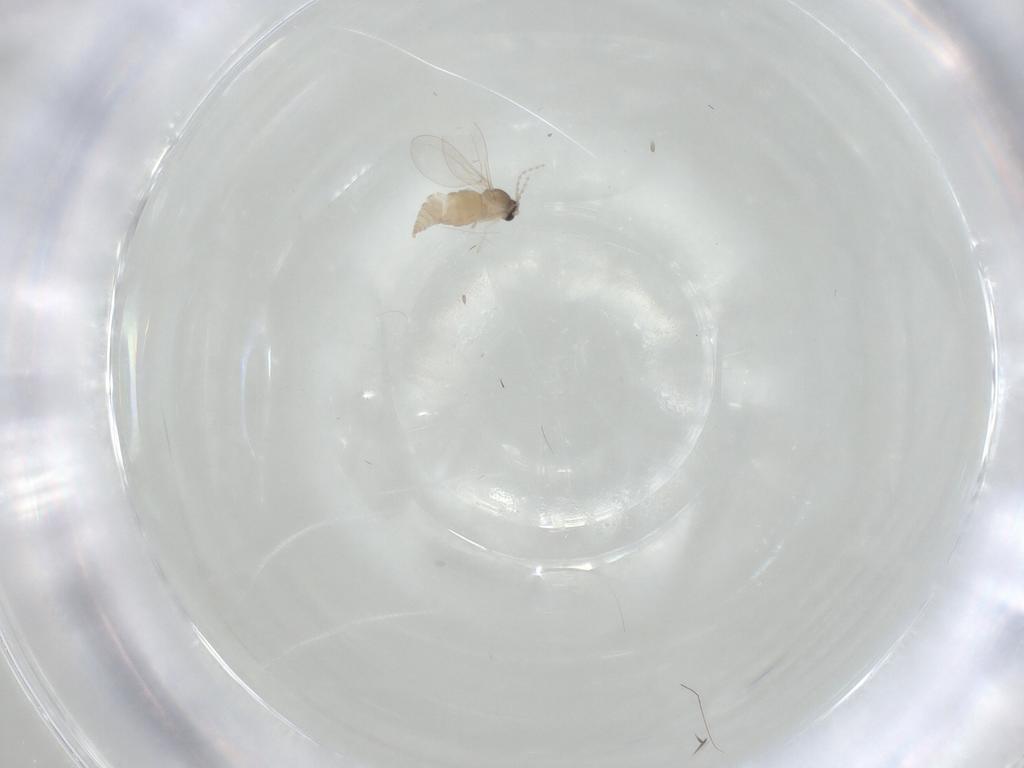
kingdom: Animalia
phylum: Arthropoda
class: Insecta
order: Diptera
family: Cecidomyiidae
